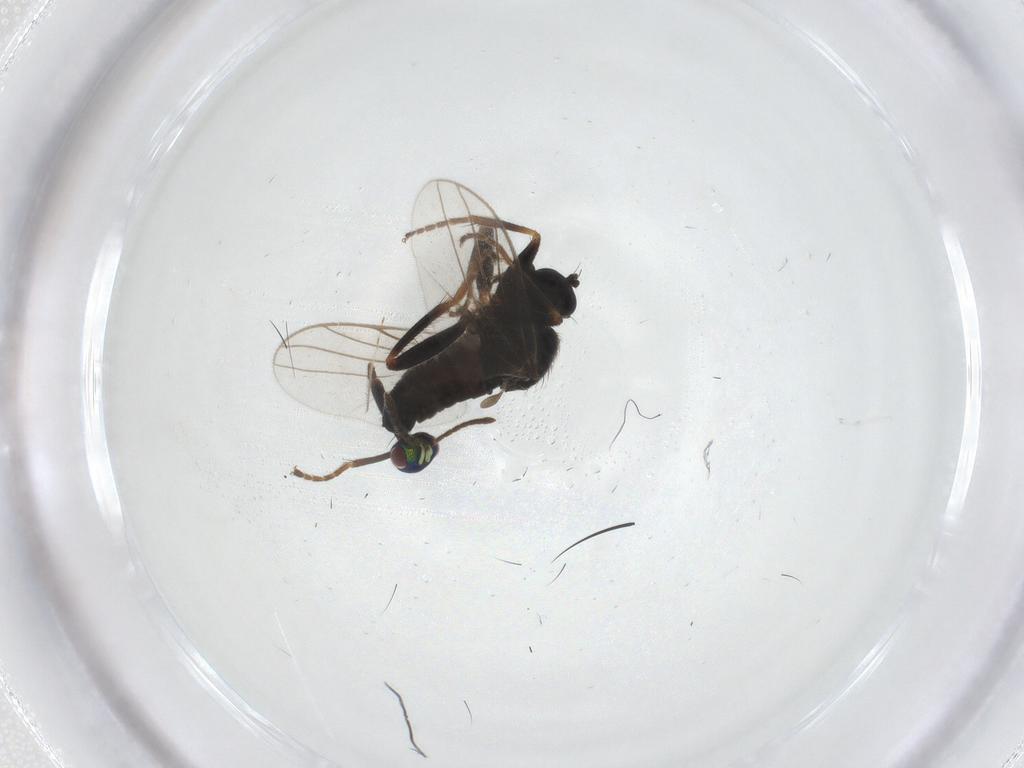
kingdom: Animalia
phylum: Arthropoda
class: Insecta
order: Diptera
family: Hybotidae
